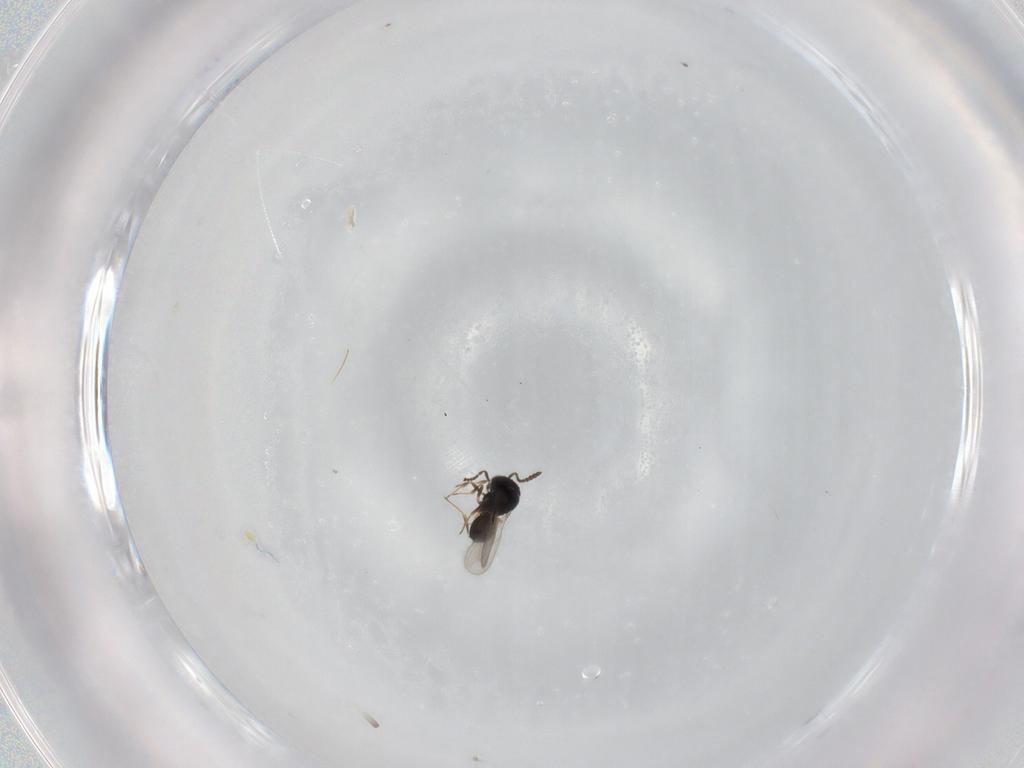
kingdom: Animalia
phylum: Arthropoda
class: Insecta
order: Hymenoptera
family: Scelionidae
